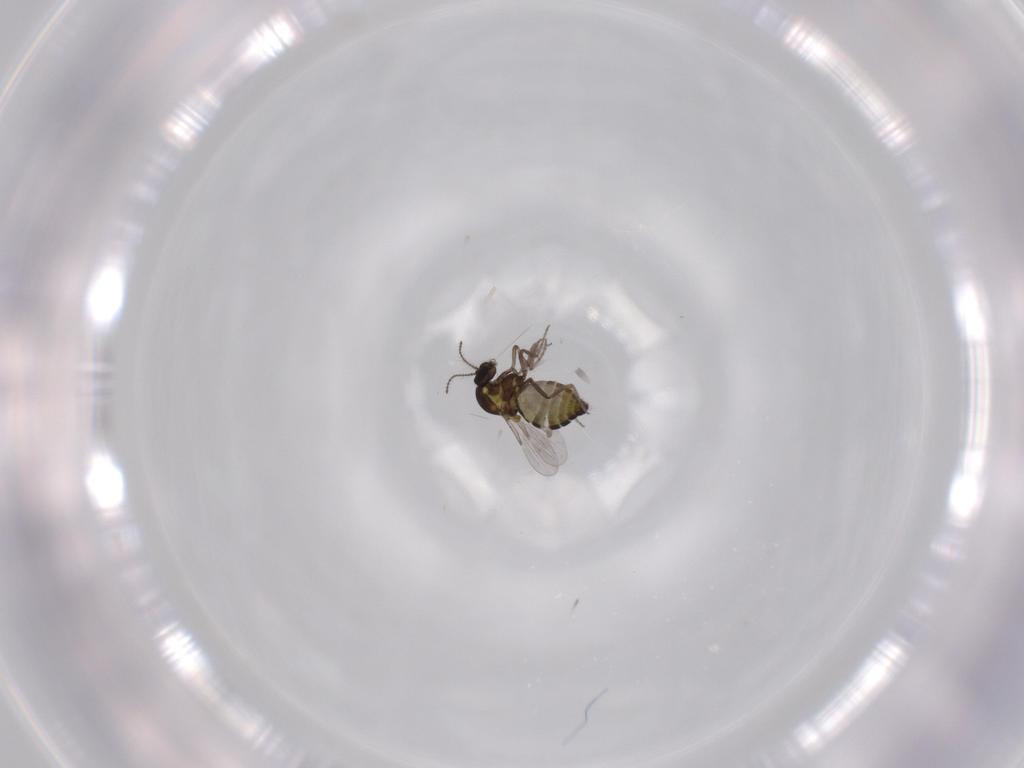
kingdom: Animalia
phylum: Arthropoda
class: Insecta
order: Diptera
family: Ceratopogonidae
